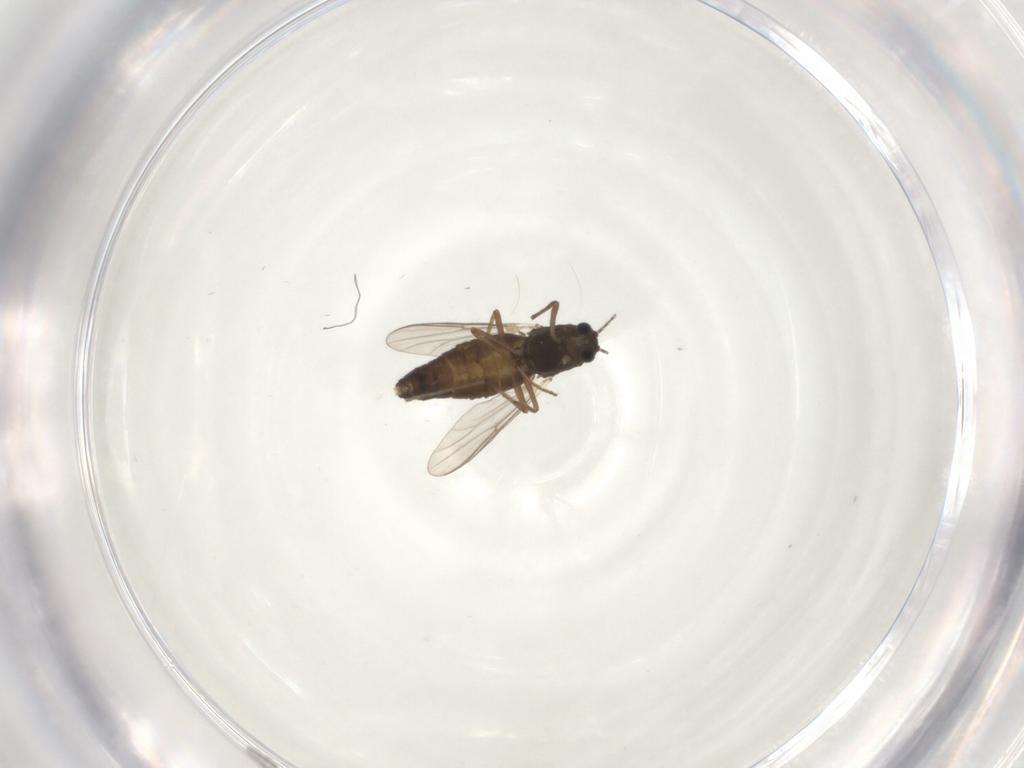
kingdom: Animalia
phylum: Arthropoda
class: Insecta
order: Diptera
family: Chironomidae
